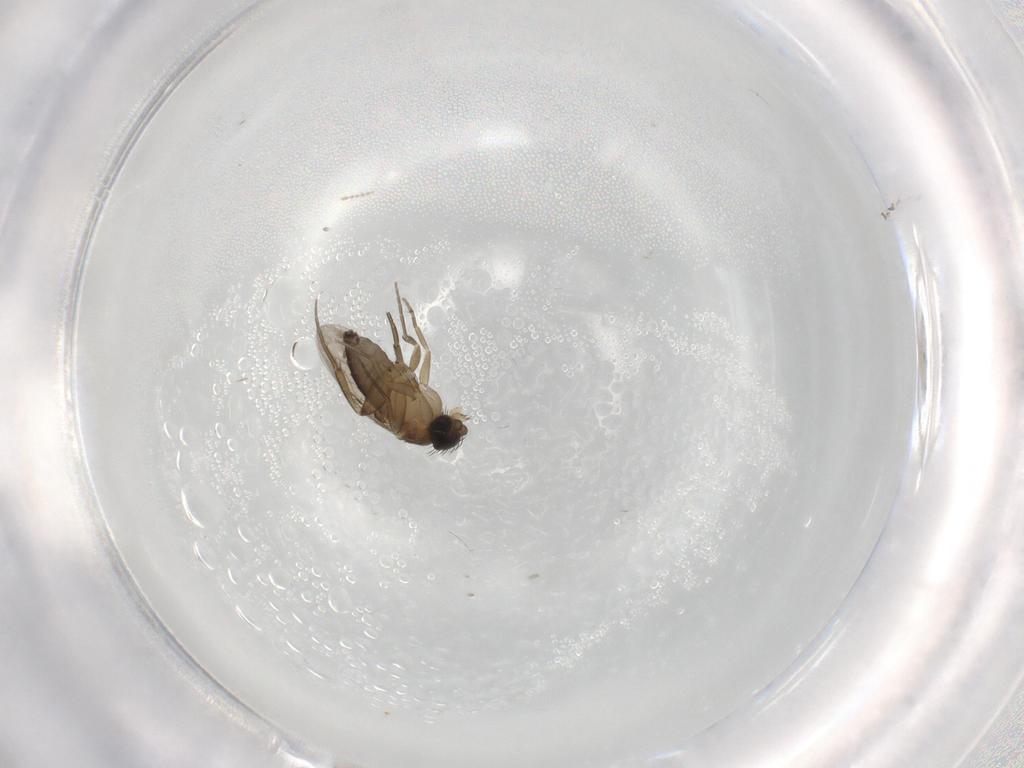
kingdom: Animalia
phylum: Arthropoda
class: Insecta
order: Diptera
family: Phoridae
